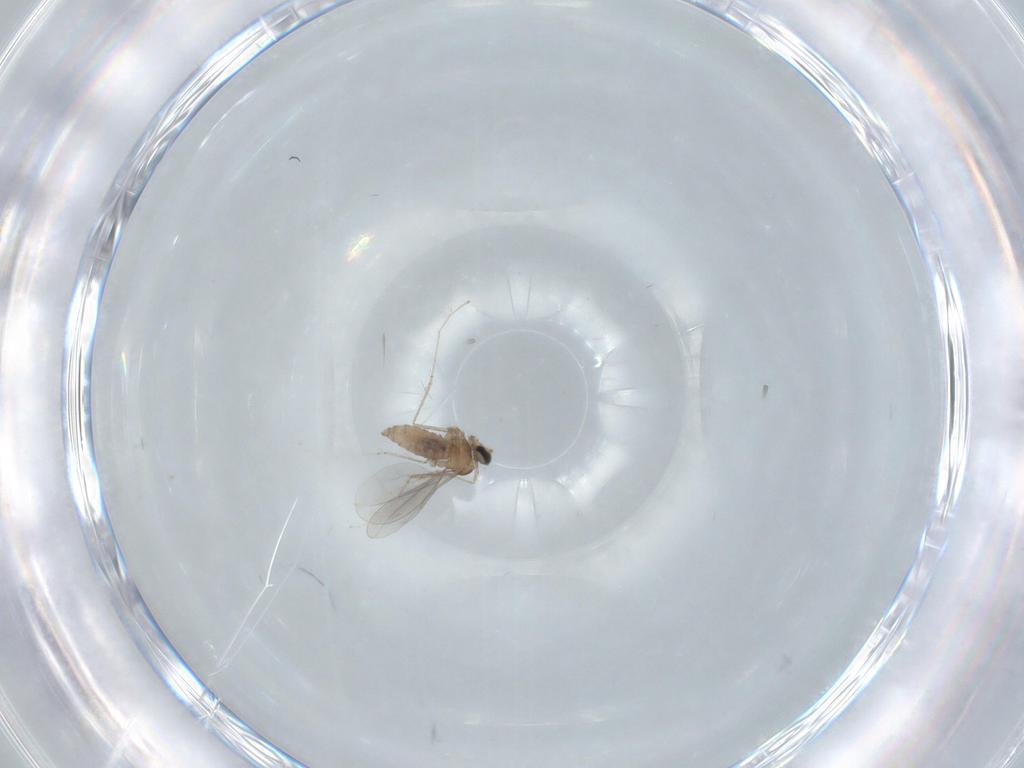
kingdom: Animalia
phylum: Arthropoda
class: Insecta
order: Diptera
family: Cecidomyiidae
